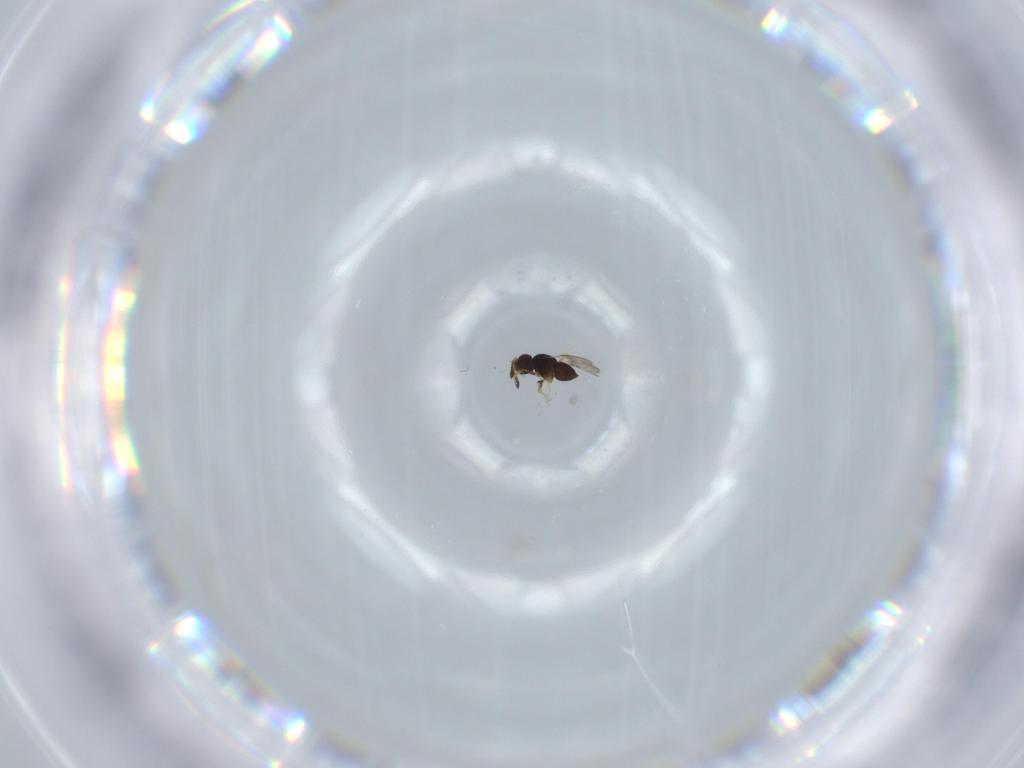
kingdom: Animalia
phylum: Arthropoda
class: Insecta
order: Hymenoptera
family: Scelionidae
